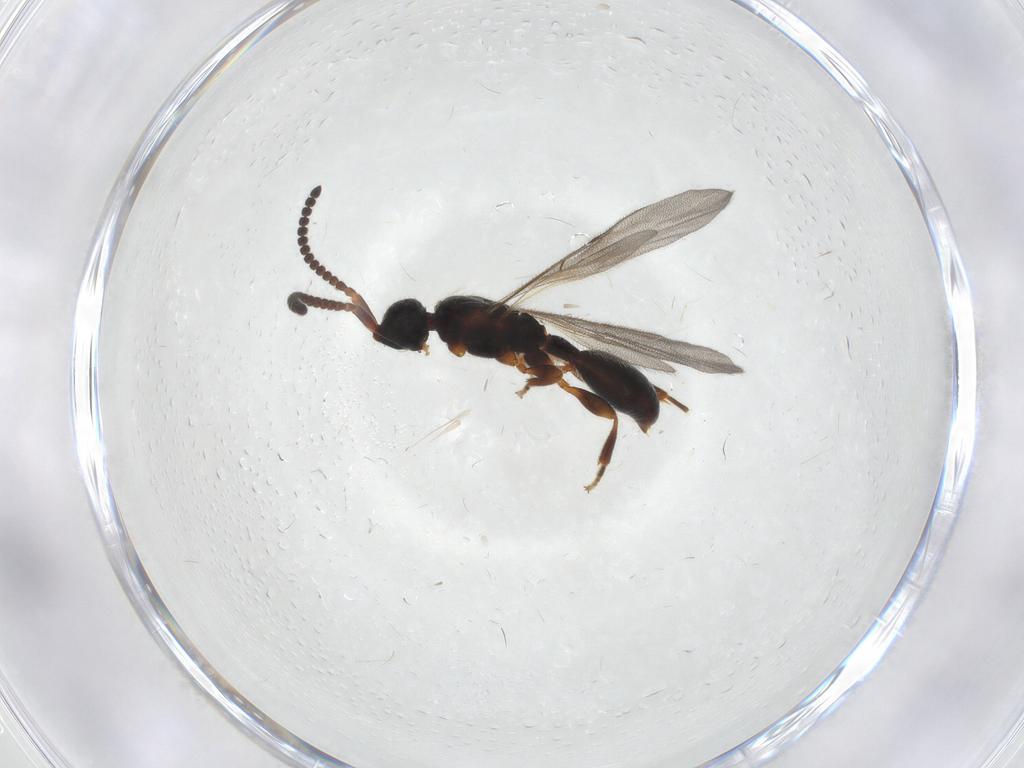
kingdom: Animalia
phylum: Arthropoda
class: Insecta
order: Hymenoptera
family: Diapriidae
